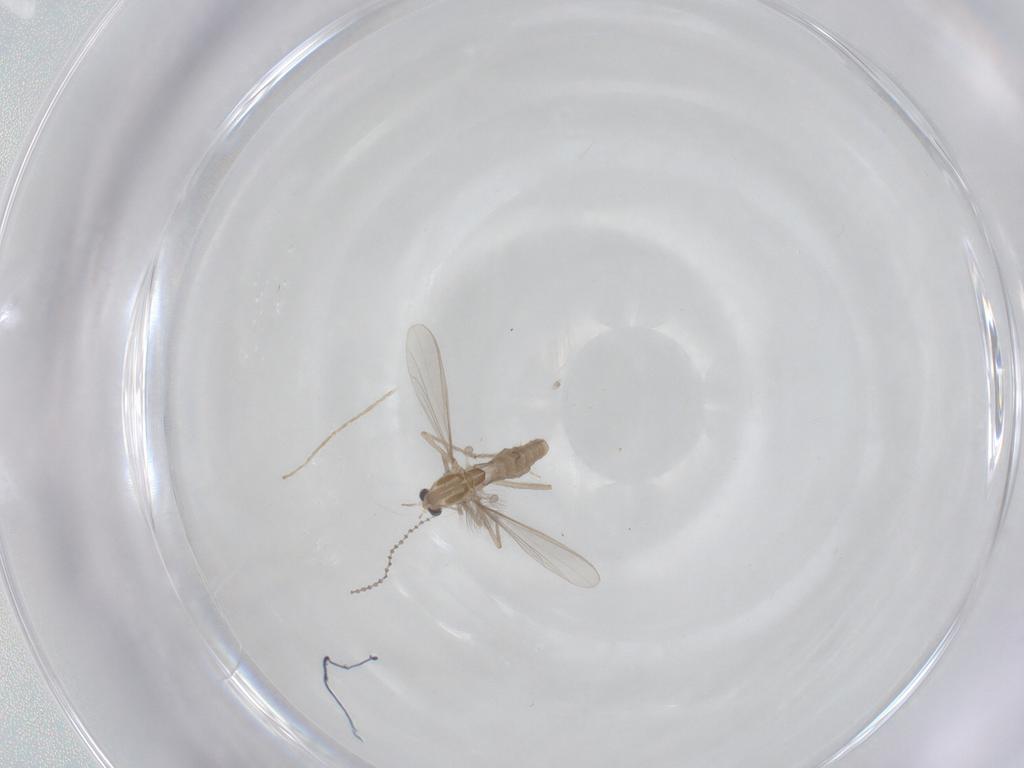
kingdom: Animalia
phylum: Arthropoda
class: Insecta
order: Diptera
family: Chironomidae
